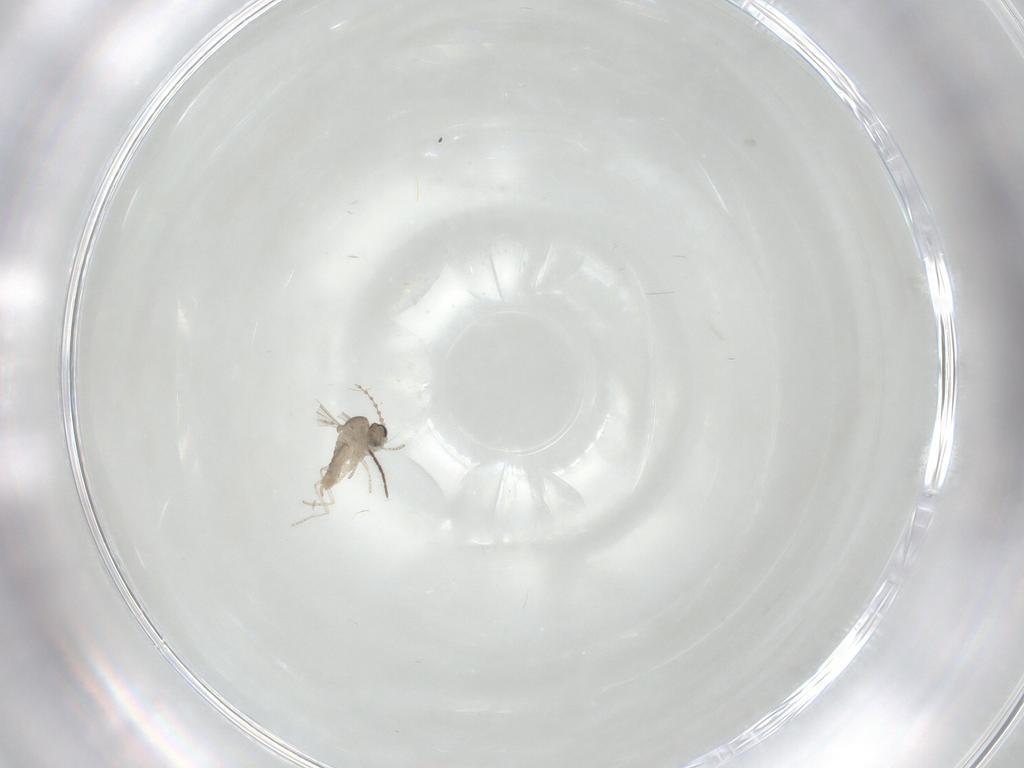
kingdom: Animalia
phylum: Arthropoda
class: Insecta
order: Diptera
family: Cecidomyiidae
